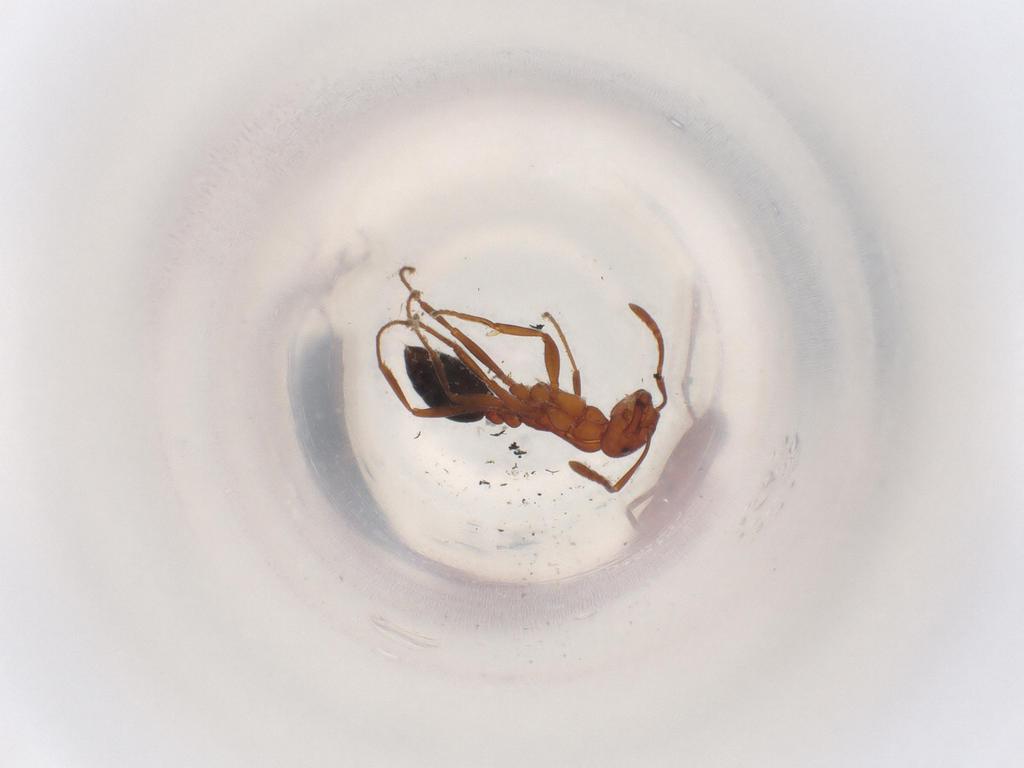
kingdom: Animalia
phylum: Arthropoda
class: Insecta
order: Hymenoptera
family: Formicidae
